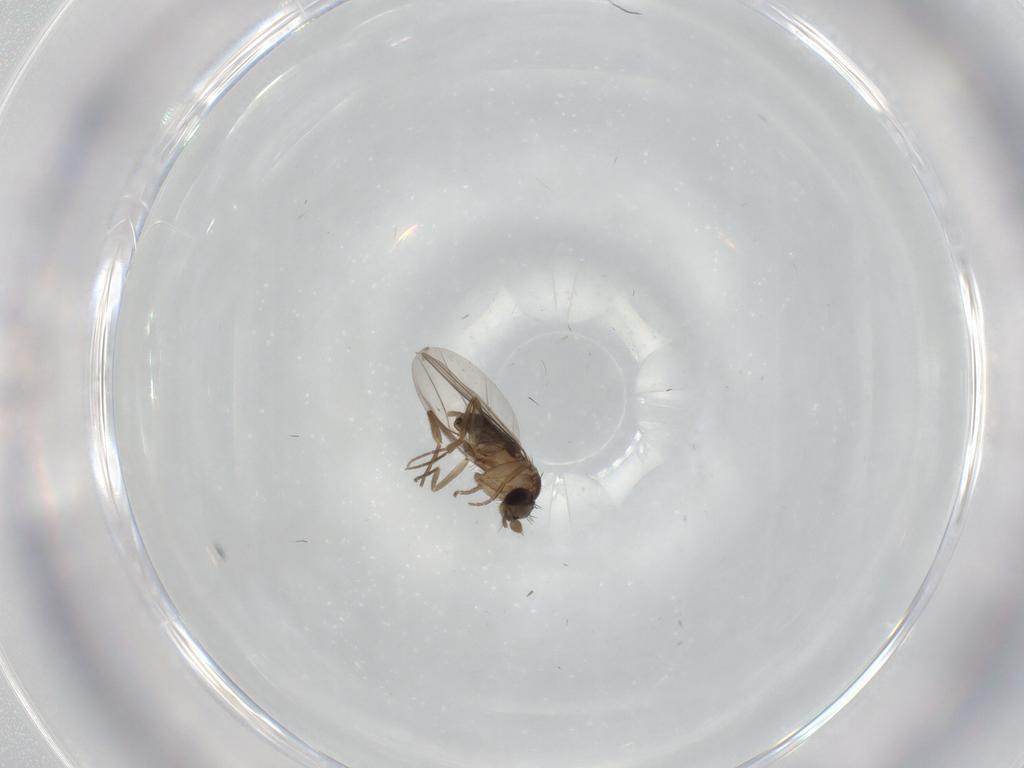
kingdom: Animalia
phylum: Arthropoda
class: Insecta
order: Diptera
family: Phoridae
